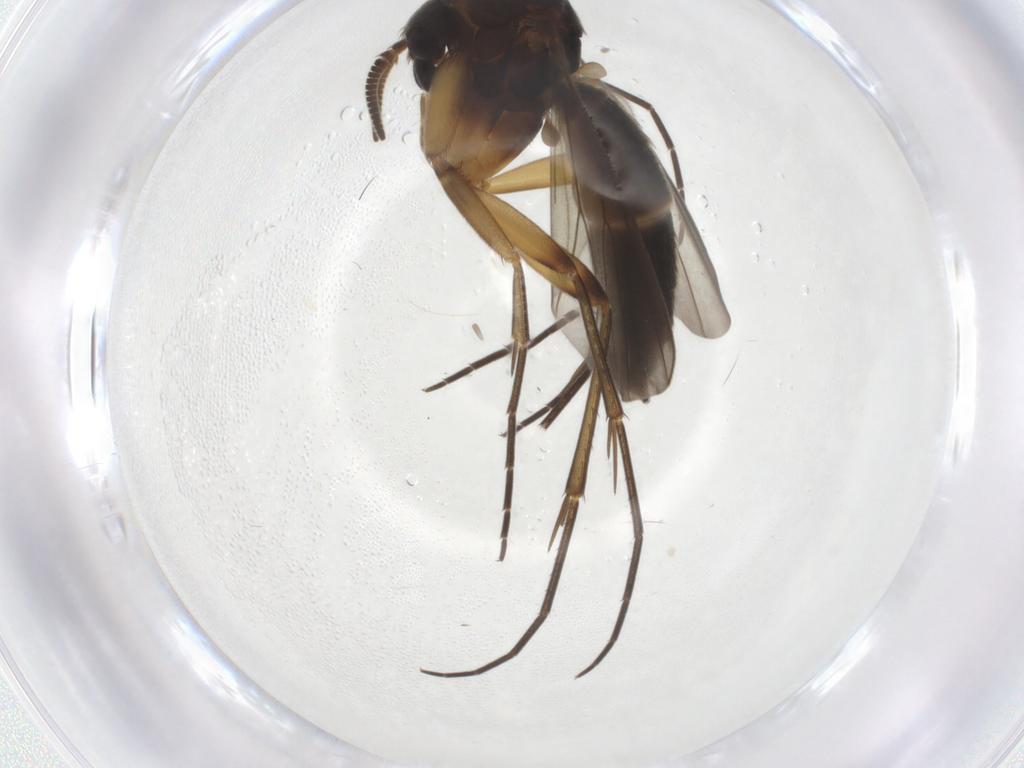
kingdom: Animalia
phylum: Arthropoda
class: Insecta
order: Diptera
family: Mycetophilidae
